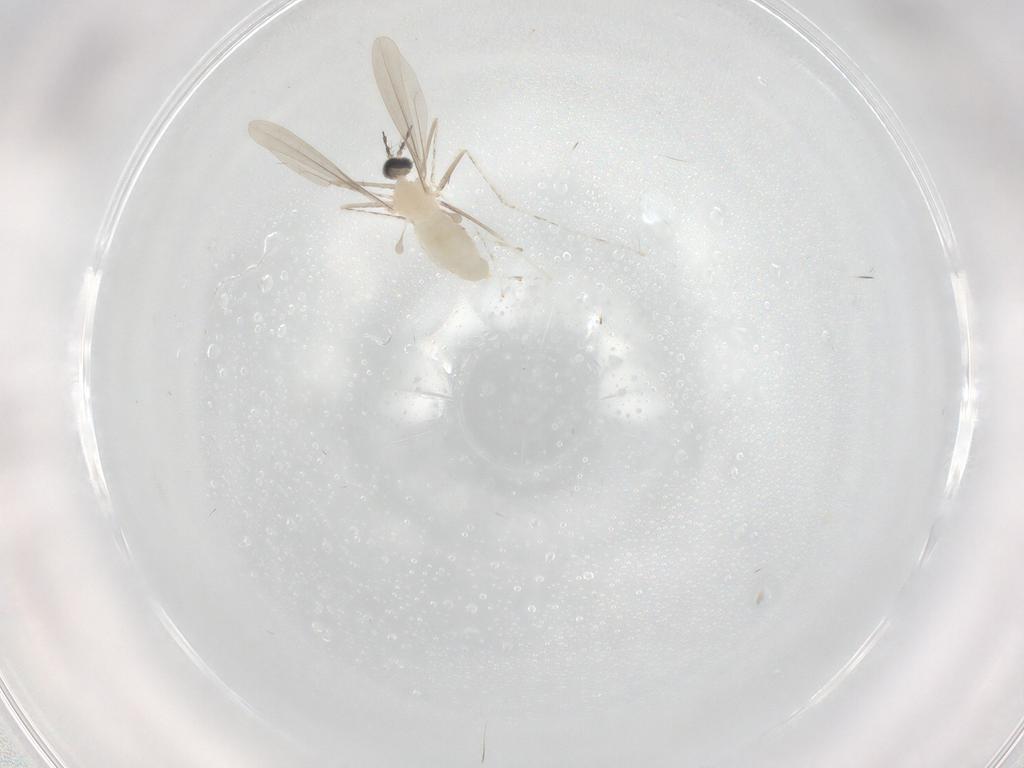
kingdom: Animalia
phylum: Arthropoda
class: Insecta
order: Diptera
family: Cecidomyiidae
